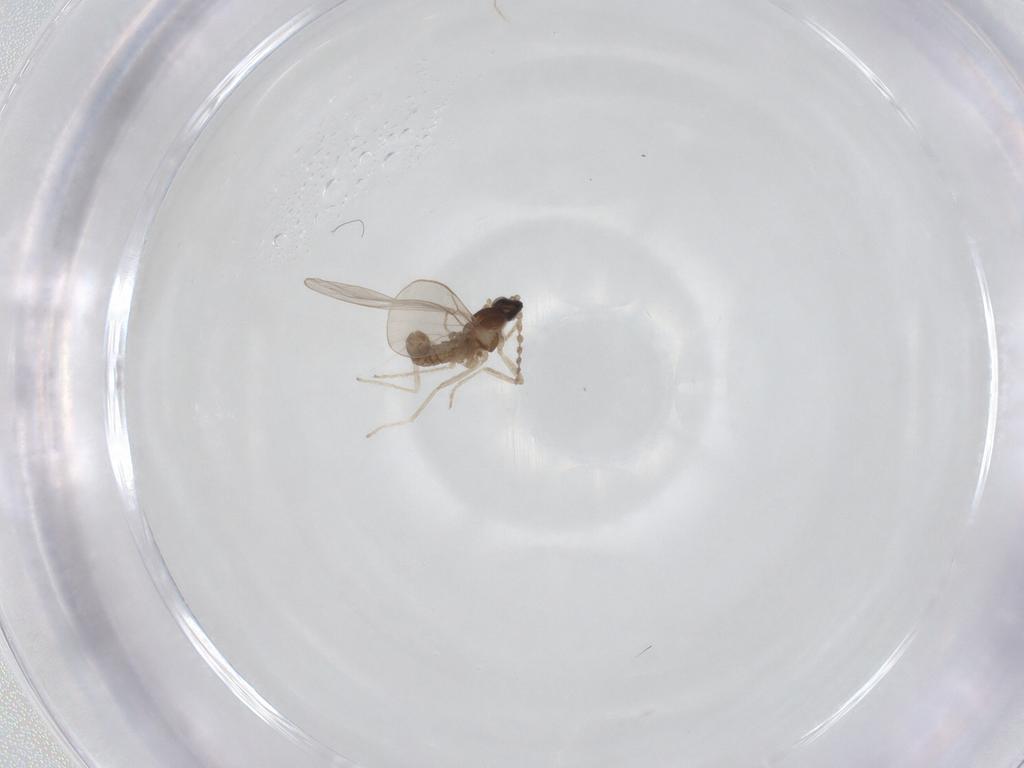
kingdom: Animalia
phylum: Arthropoda
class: Insecta
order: Diptera
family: Cecidomyiidae
